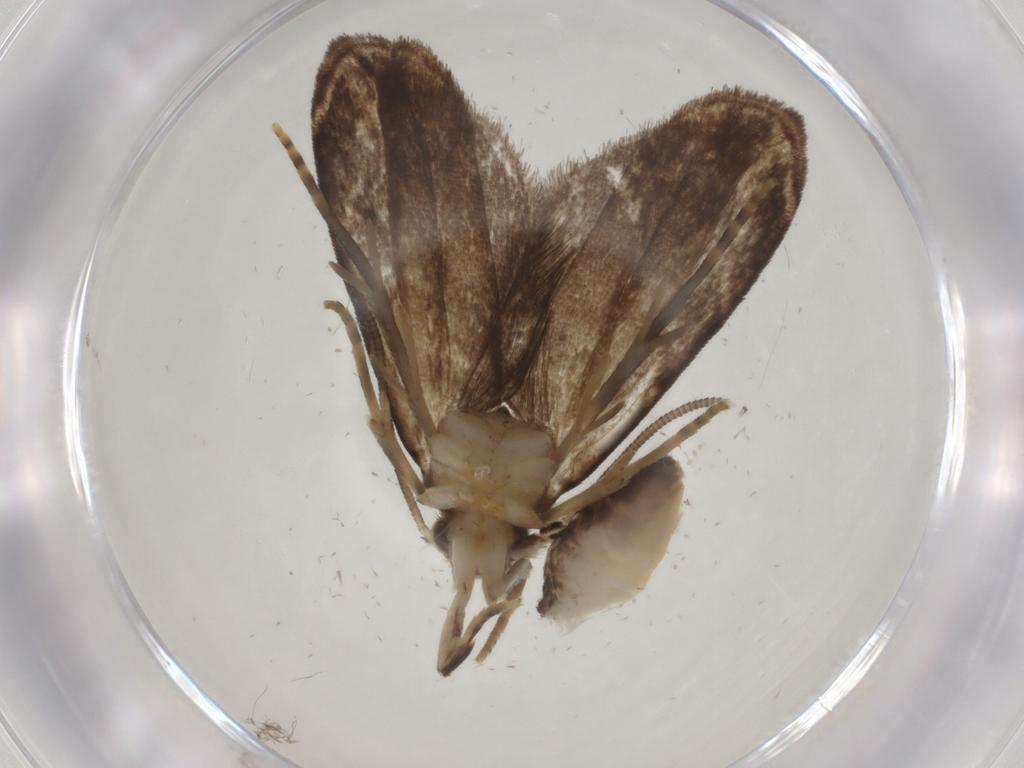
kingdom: Animalia
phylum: Arthropoda
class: Insecta
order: Lepidoptera
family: Dryadaulidae
